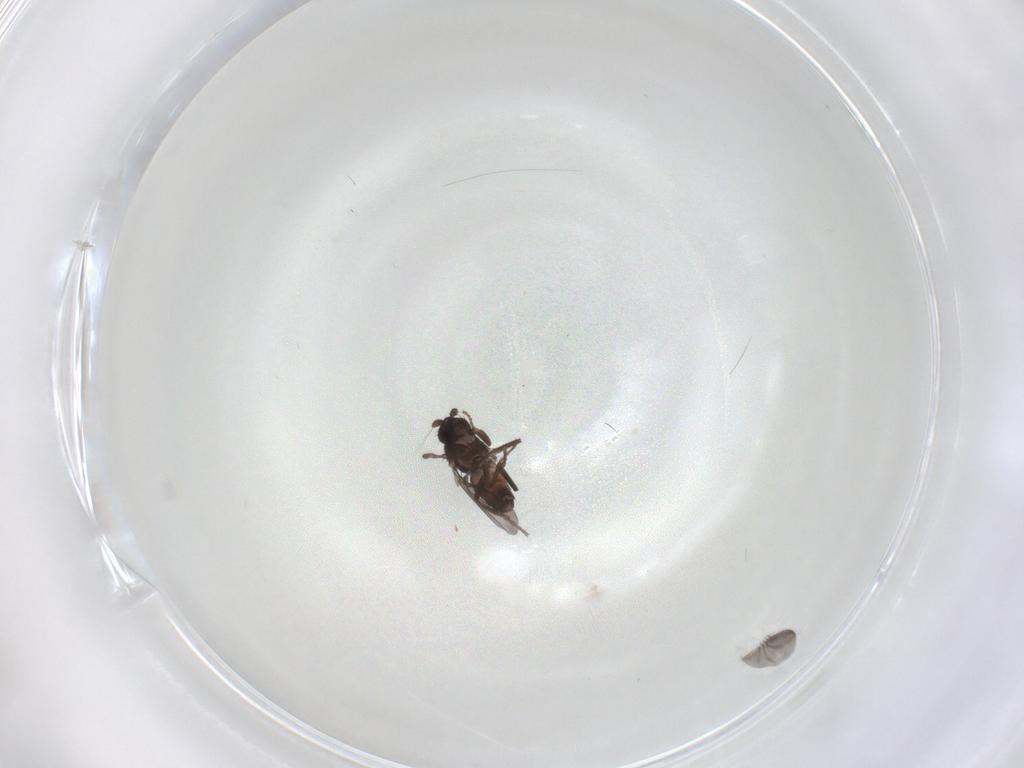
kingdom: Animalia
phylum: Arthropoda
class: Insecta
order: Diptera
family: Sphaeroceridae
